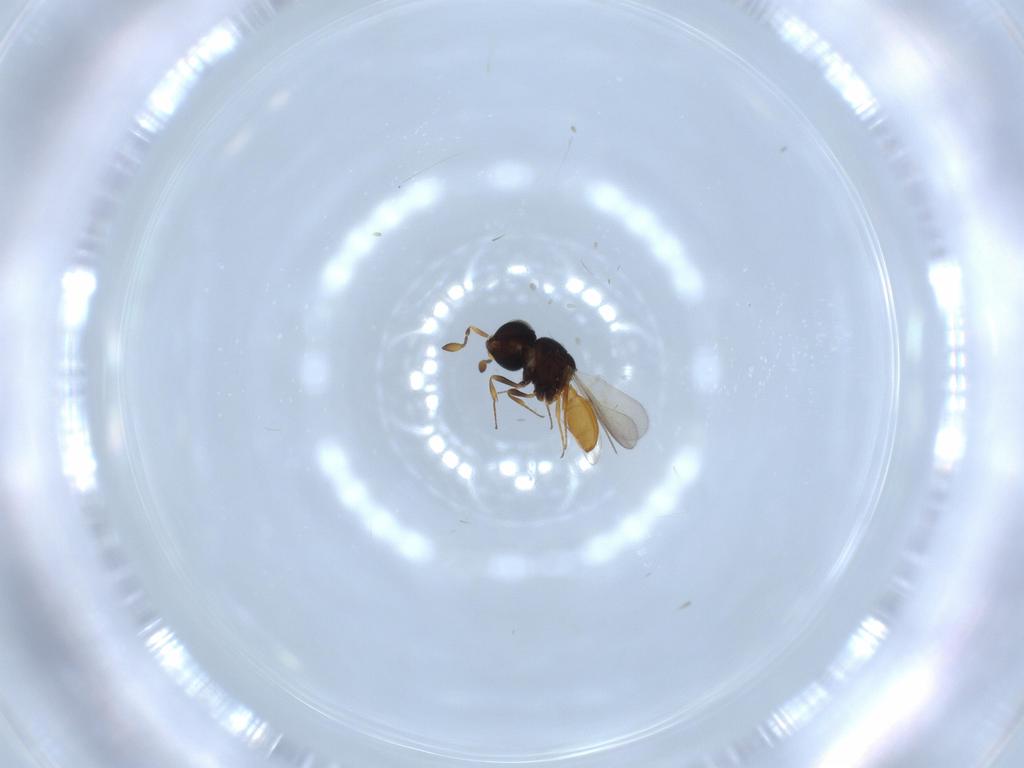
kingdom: Animalia
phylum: Arthropoda
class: Insecta
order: Hymenoptera
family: Scelionidae
